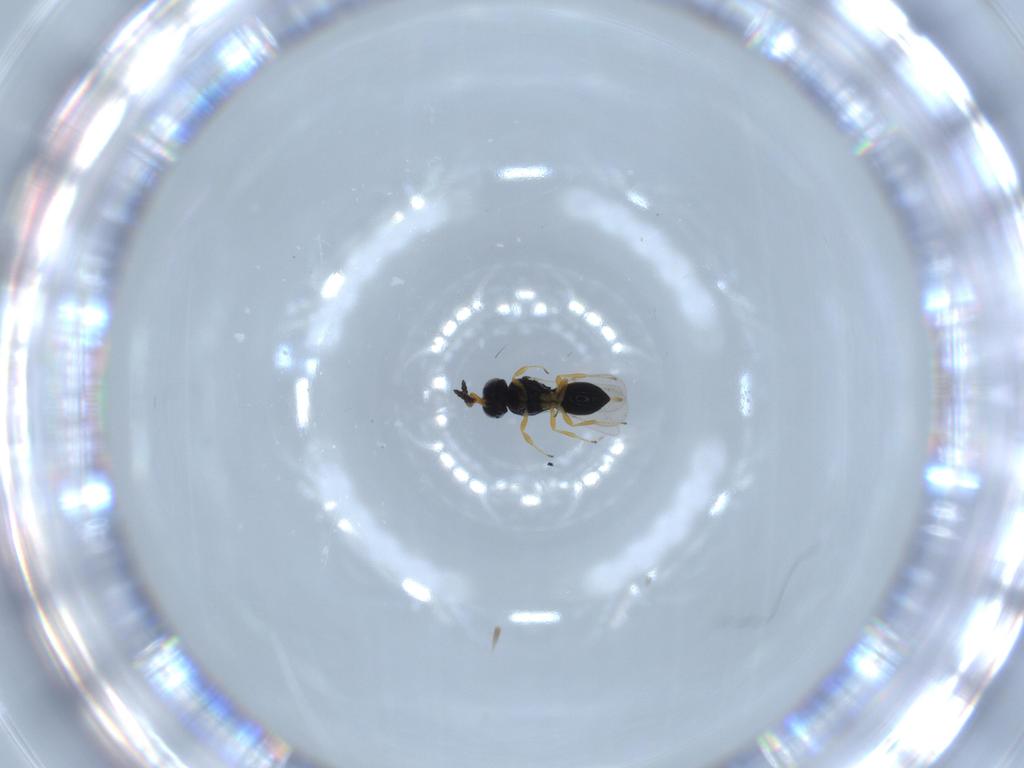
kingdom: Animalia
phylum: Arthropoda
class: Insecta
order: Hymenoptera
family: Scelionidae
